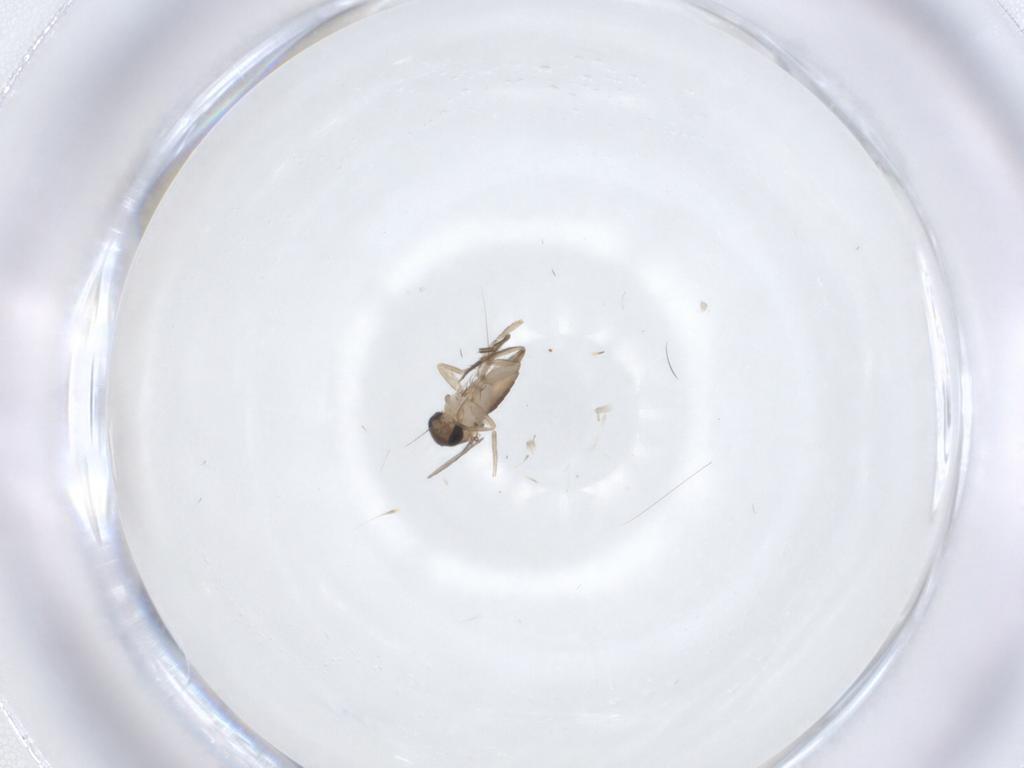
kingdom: Animalia
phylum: Arthropoda
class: Insecta
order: Diptera
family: Phoridae
